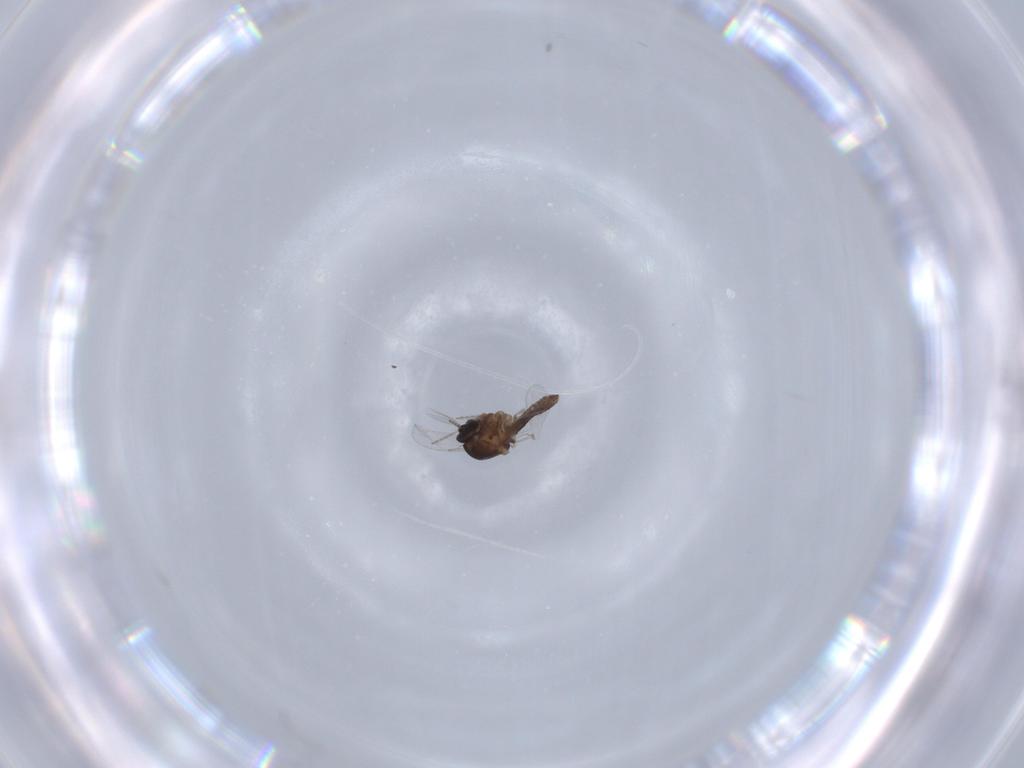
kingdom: Animalia
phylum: Arthropoda
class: Insecta
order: Diptera
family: Ceratopogonidae
